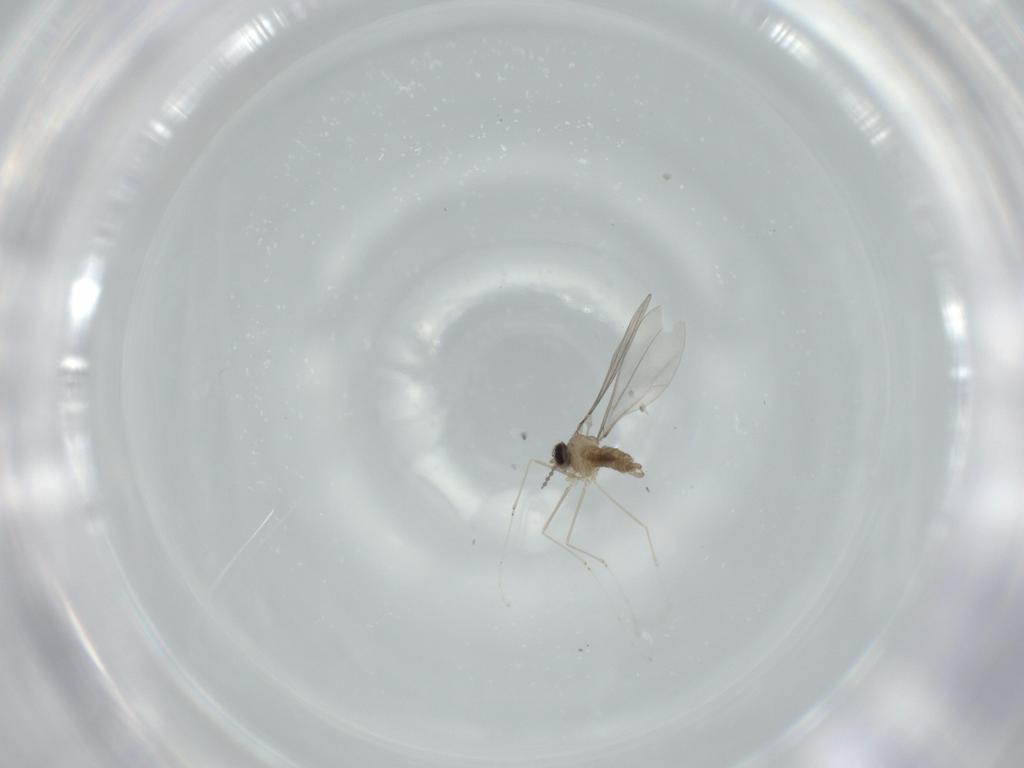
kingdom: Animalia
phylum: Arthropoda
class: Insecta
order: Diptera
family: Cecidomyiidae
